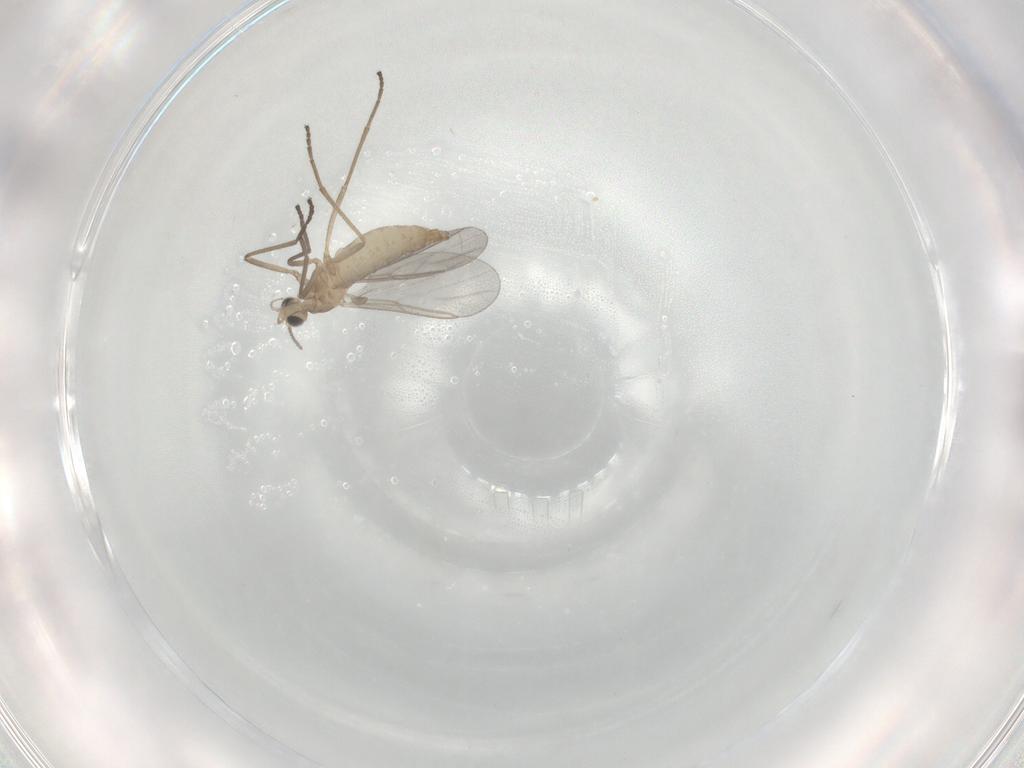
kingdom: Animalia
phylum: Arthropoda
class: Insecta
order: Diptera
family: Cecidomyiidae
